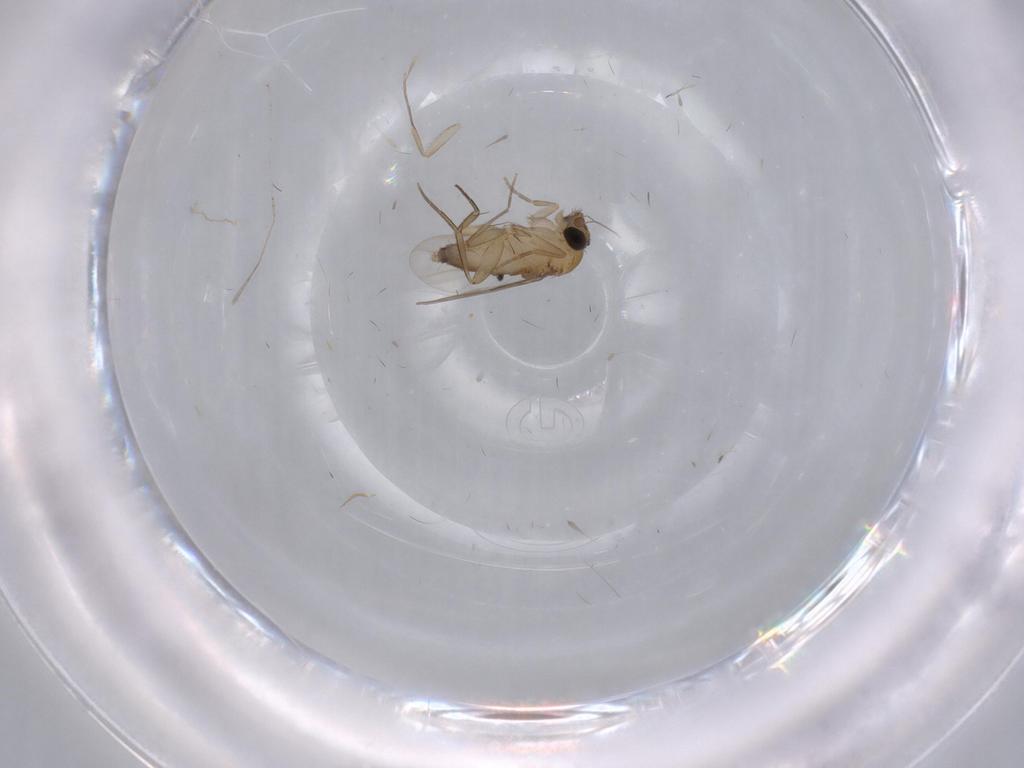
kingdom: Animalia
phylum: Arthropoda
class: Insecta
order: Diptera
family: Phoridae
